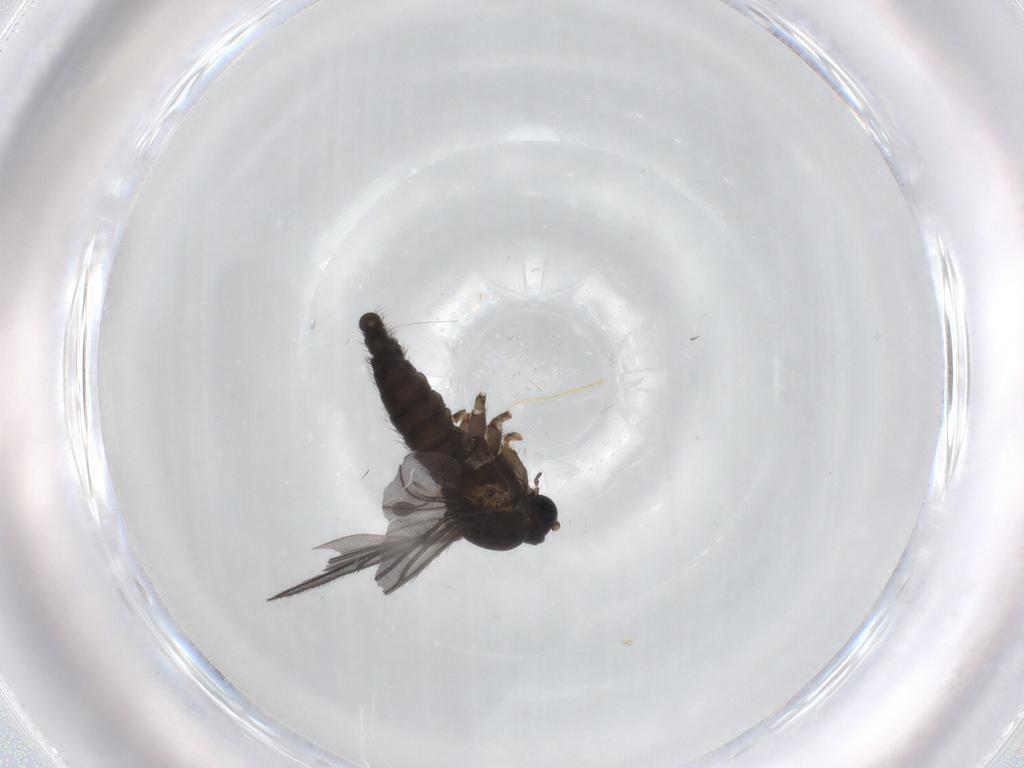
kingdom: Animalia
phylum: Arthropoda
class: Insecta
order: Diptera
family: Sciaridae
